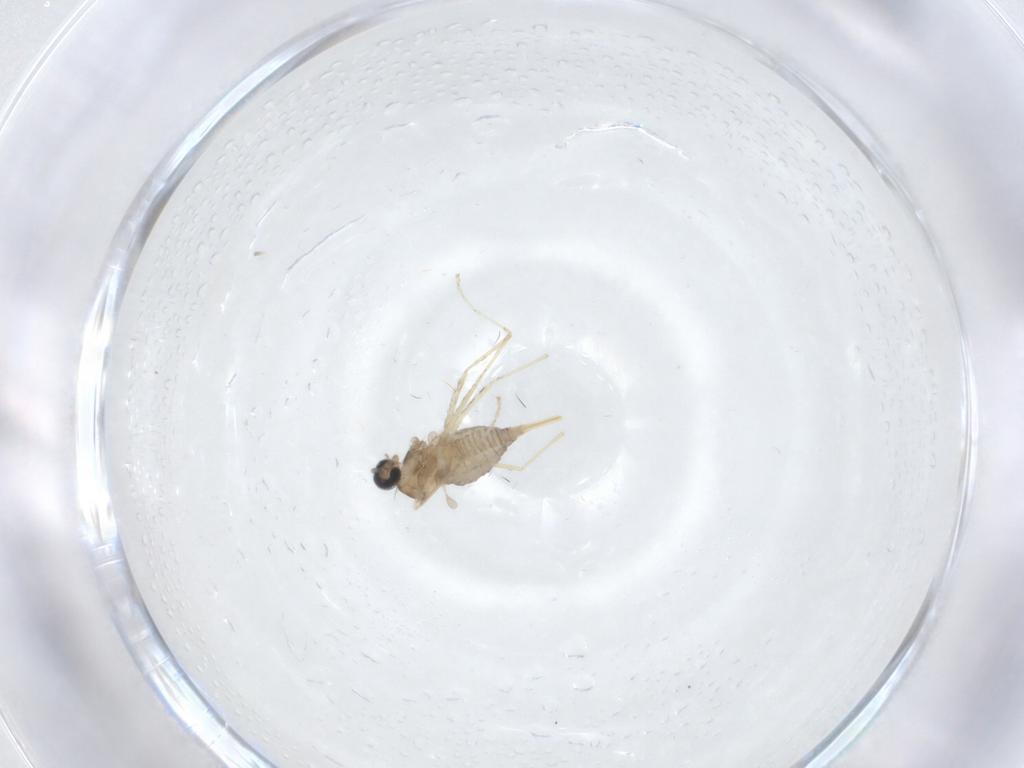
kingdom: Animalia
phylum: Arthropoda
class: Insecta
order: Diptera
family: Cecidomyiidae
